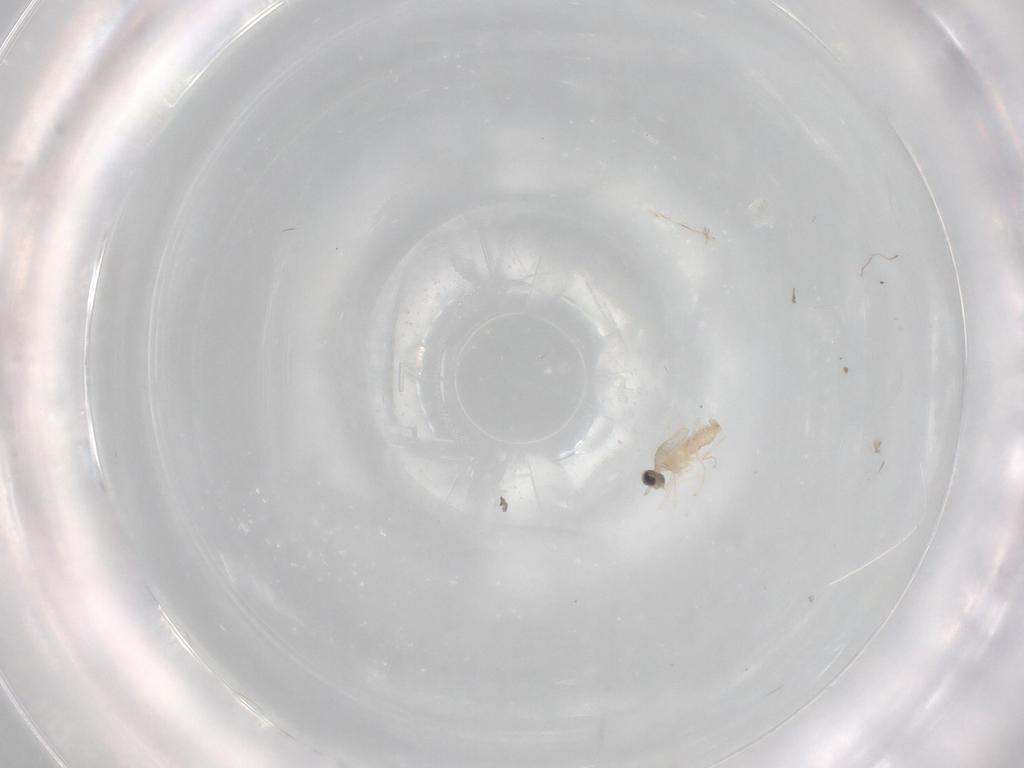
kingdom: Animalia
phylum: Arthropoda
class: Insecta
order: Diptera
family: Cecidomyiidae
